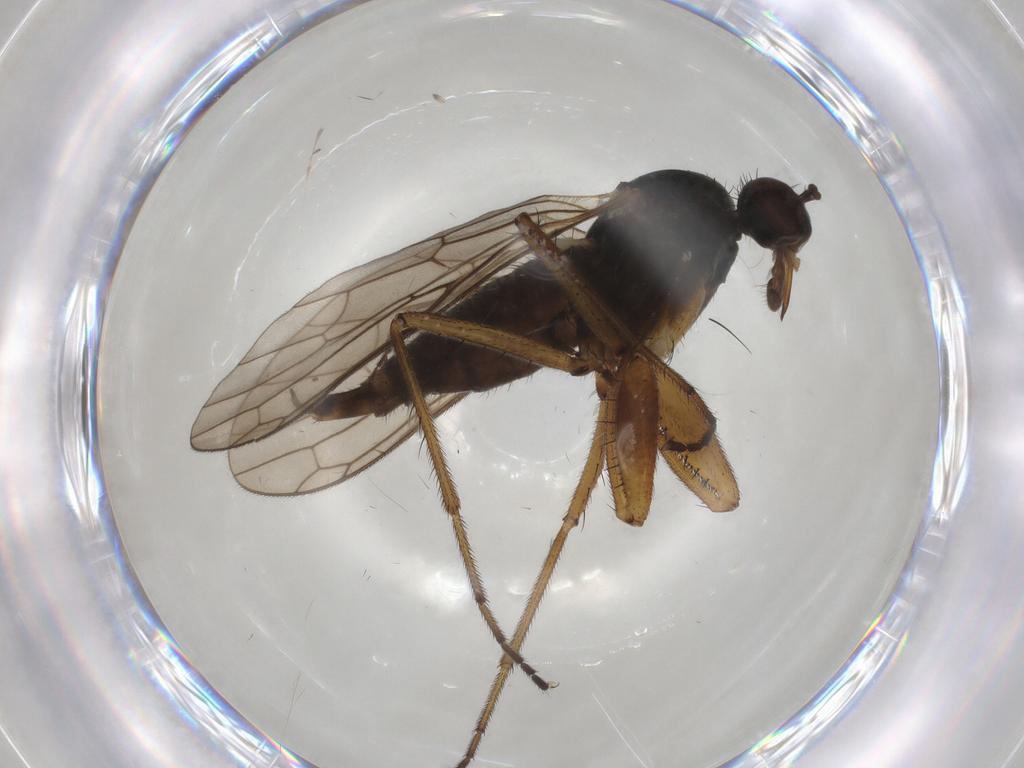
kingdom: Animalia
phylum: Arthropoda
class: Insecta
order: Diptera
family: Empididae
